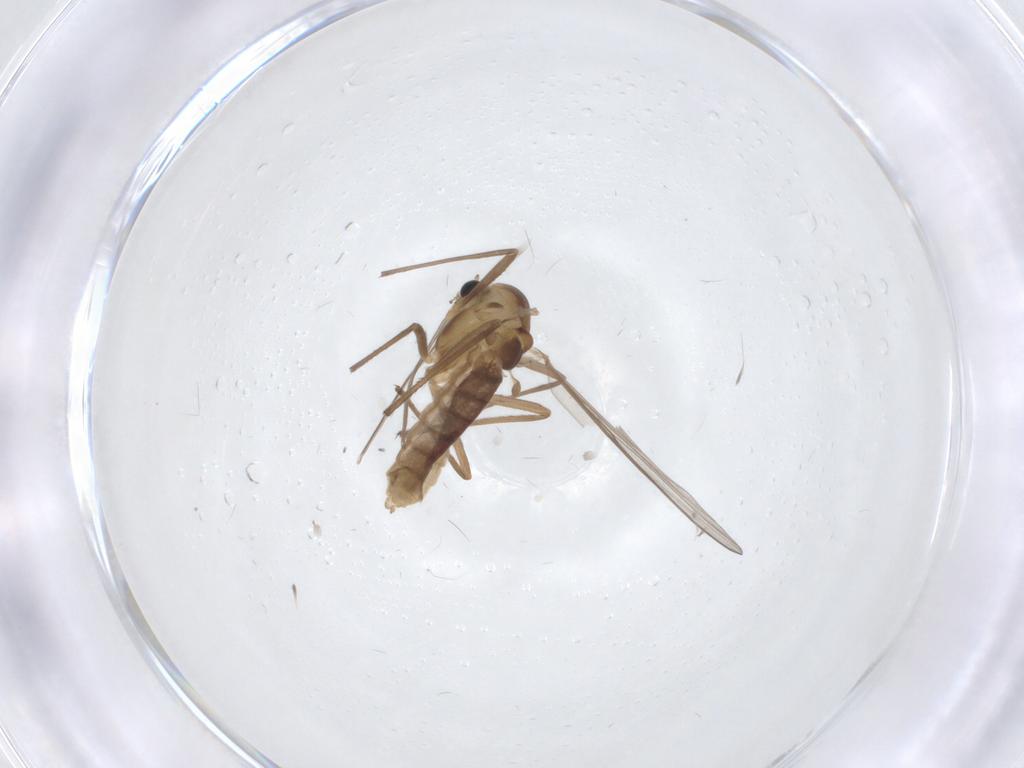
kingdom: Animalia
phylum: Arthropoda
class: Insecta
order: Diptera
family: Chironomidae
